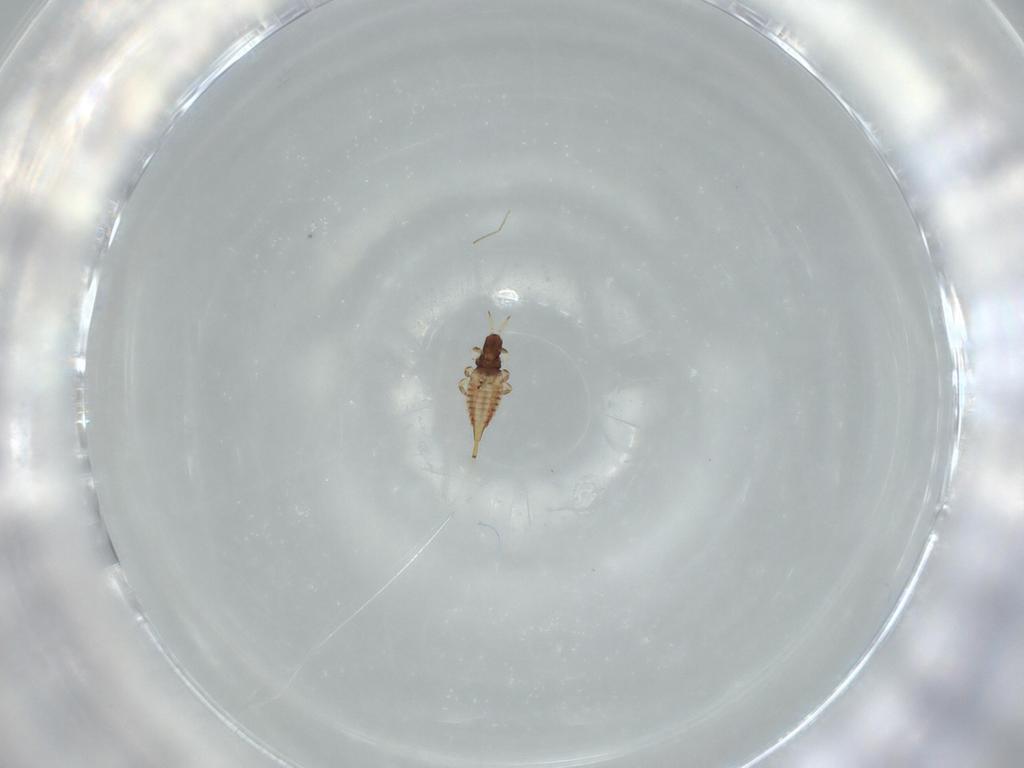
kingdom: Animalia
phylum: Arthropoda
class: Insecta
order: Thysanoptera
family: Phlaeothripidae
